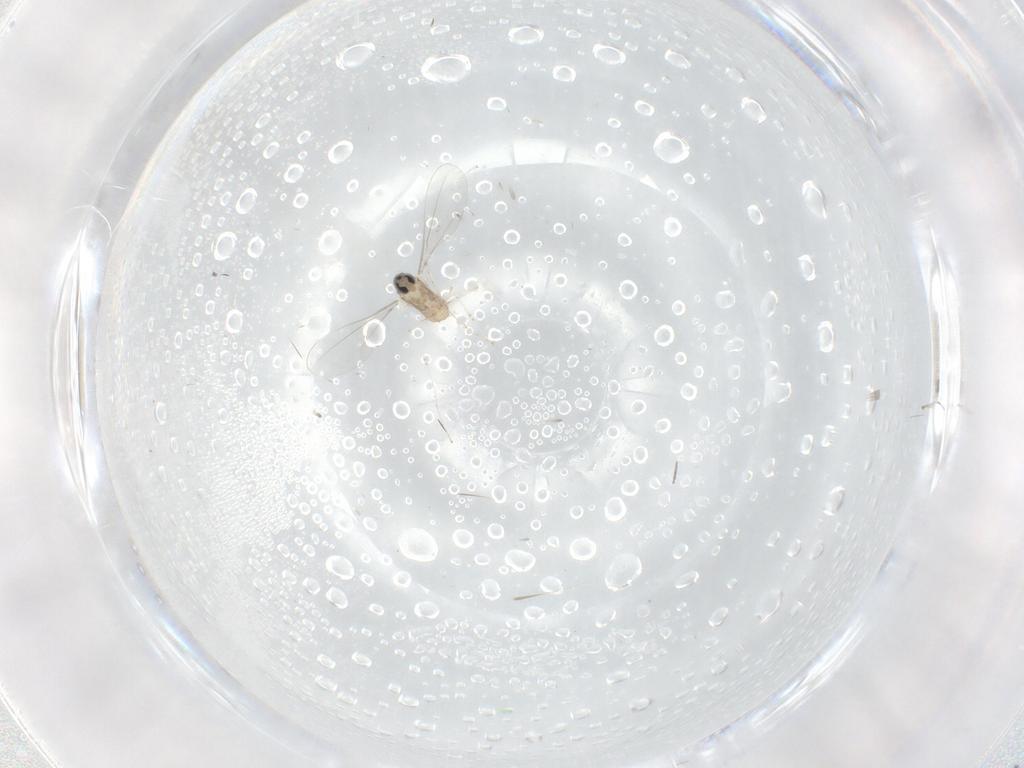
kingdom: Animalia
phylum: Arthropoda
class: Insecta
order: Diptera
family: Cecidomyiidae
